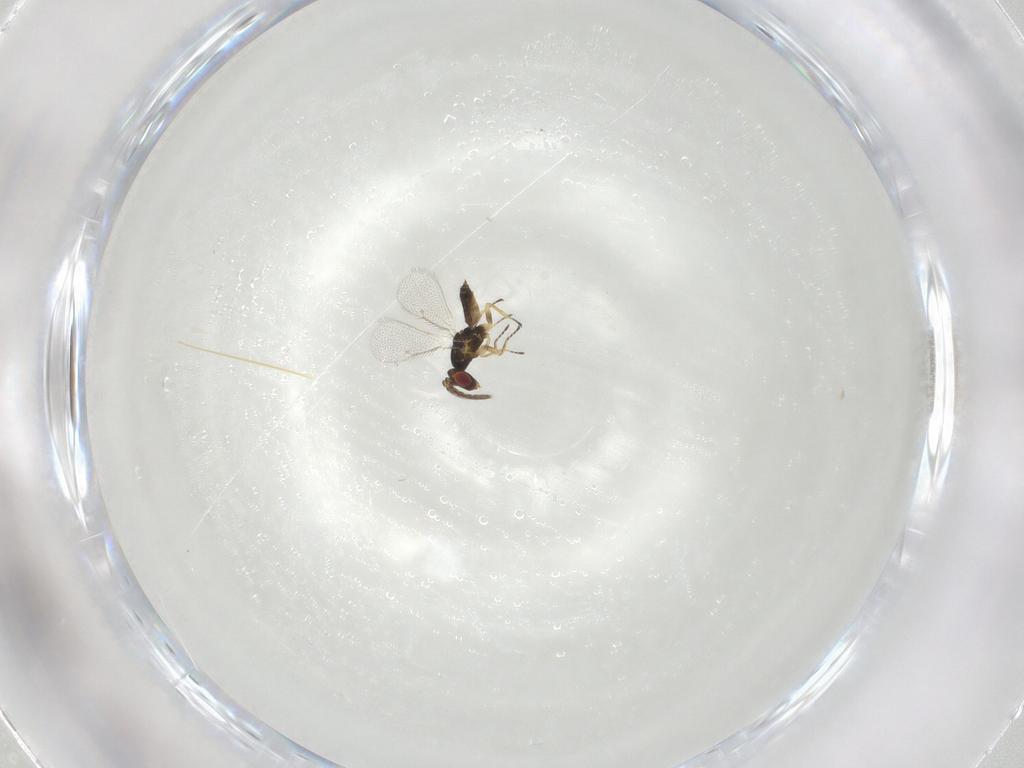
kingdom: Animalia
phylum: Arthropoda
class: Insecta
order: Hymenoptera
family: Eulophidae
